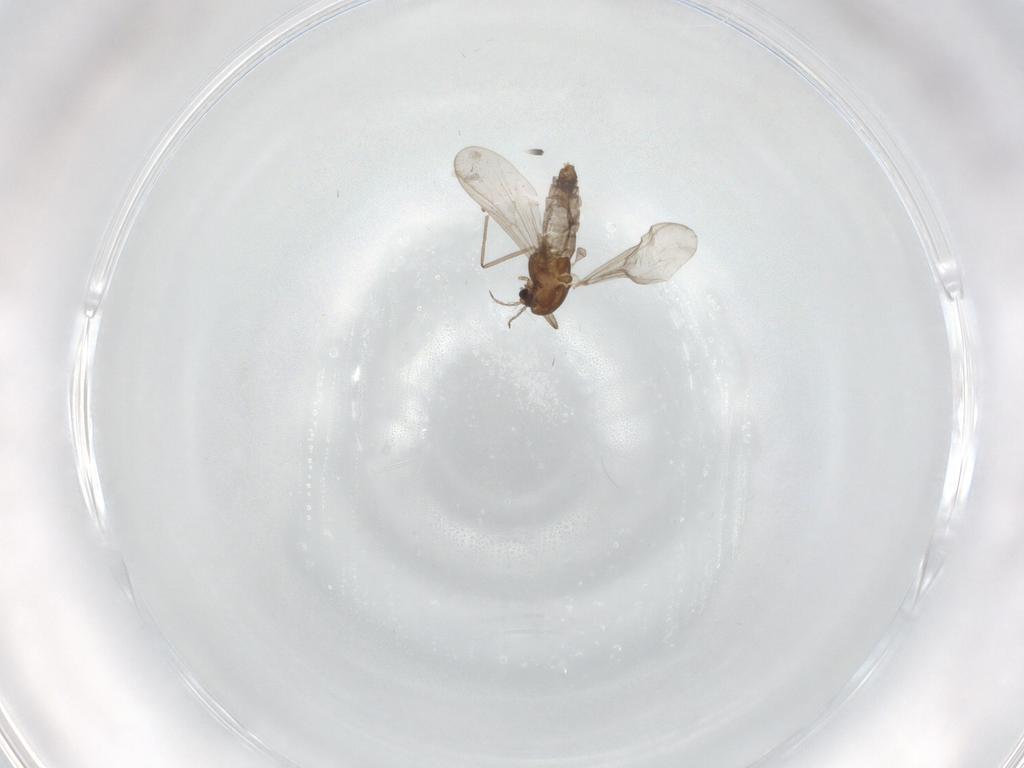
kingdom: Animalia
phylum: Arthropoda
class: Insecta
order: Diptera
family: Chironomidae
